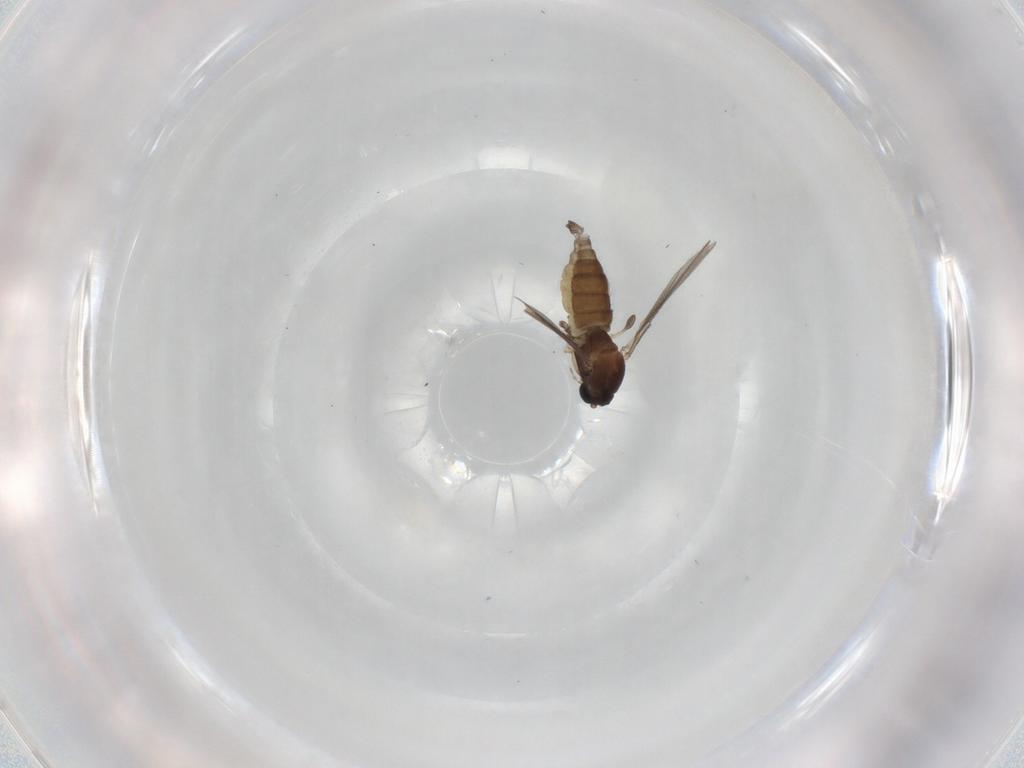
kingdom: Animalia
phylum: Arthropoda
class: Insecta
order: Diptera
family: Sciaridae
